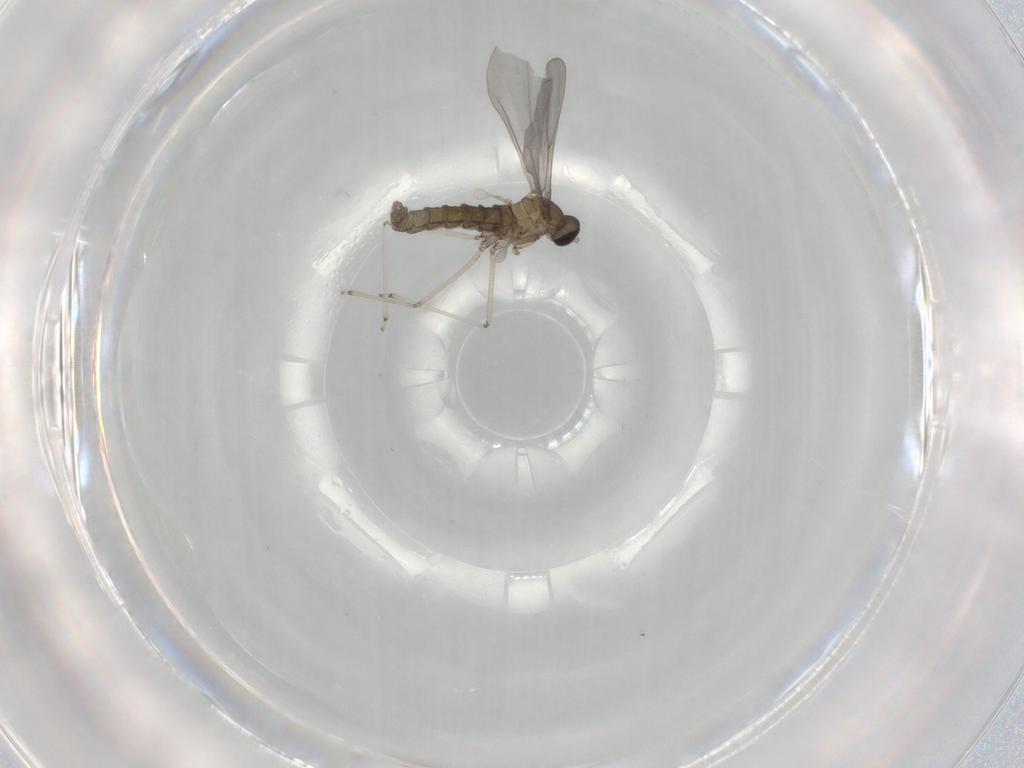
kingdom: Animalia
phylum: Arthropoda
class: Insecta
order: Diptera
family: Cecidomyiidae
